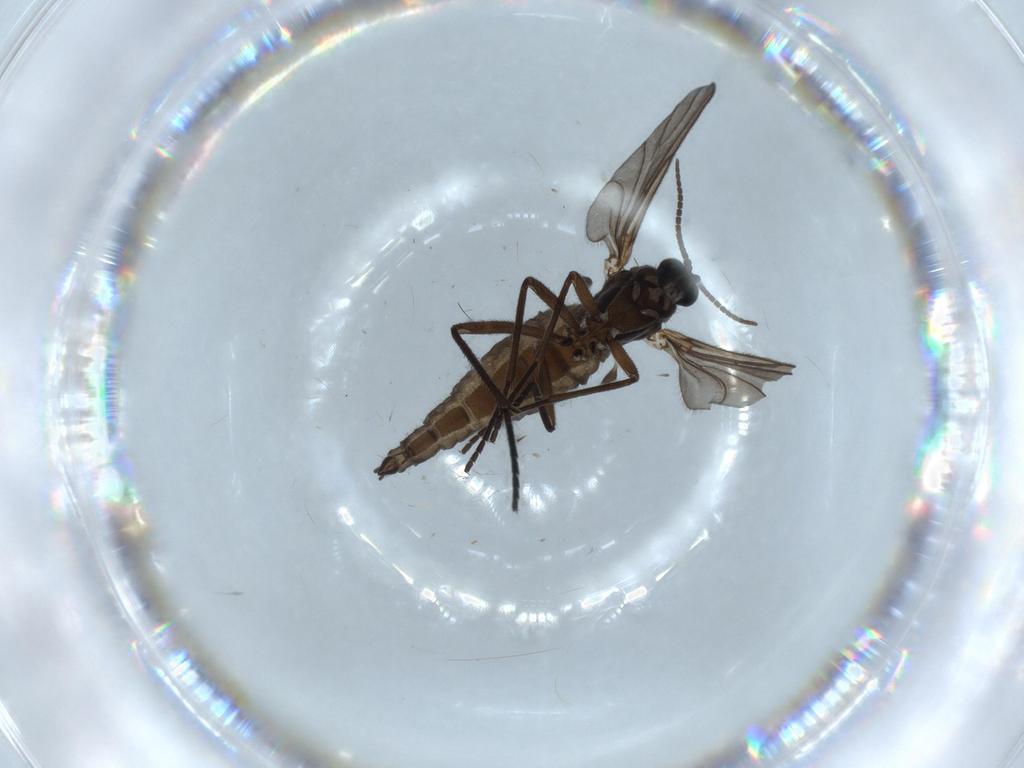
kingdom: Animalia
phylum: Arthropoda
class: Insecta
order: Diptera
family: Sciaridae
